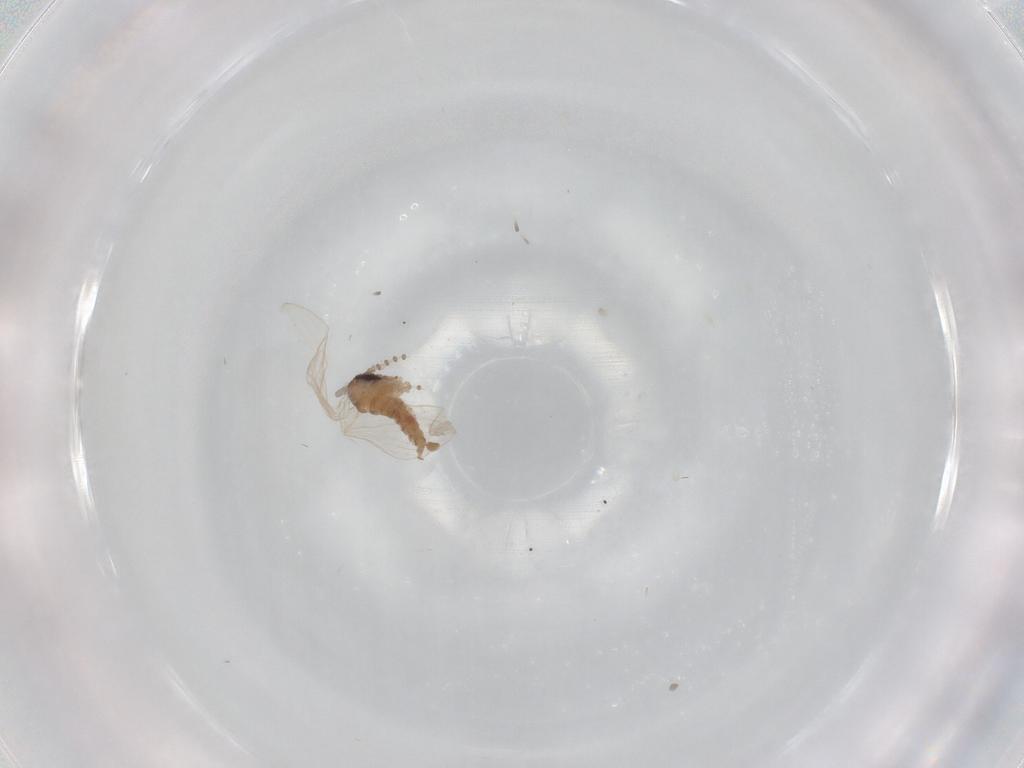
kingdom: Animalia
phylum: Arthropoda
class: Insecta
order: Diptera
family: Psychodidae
